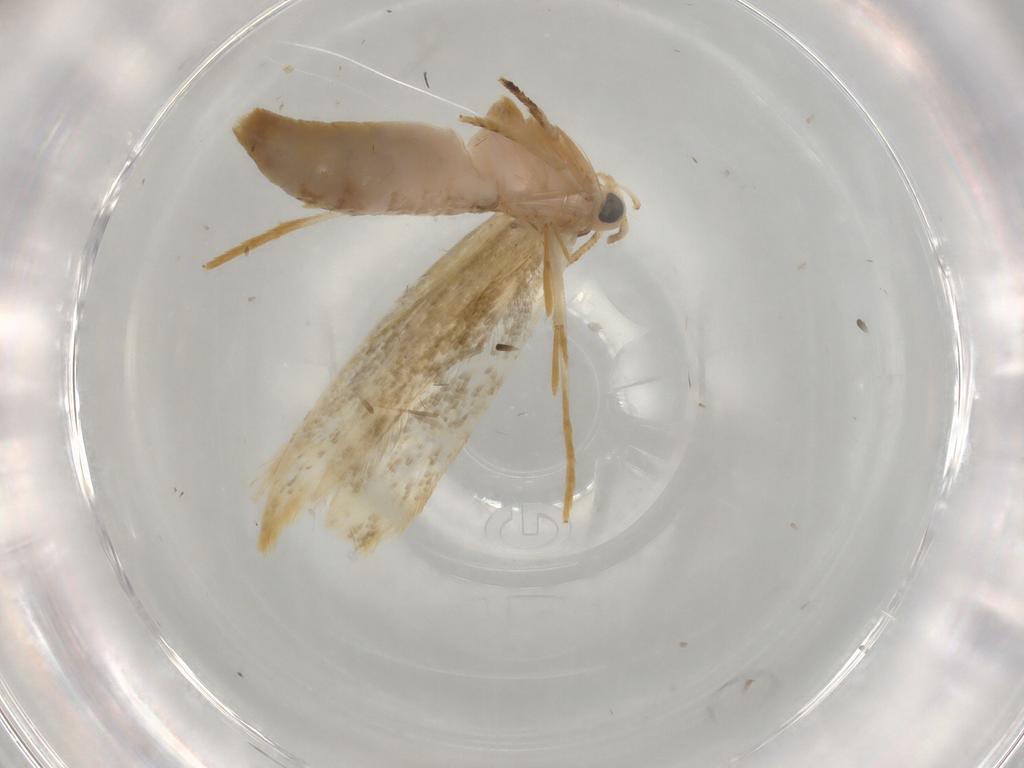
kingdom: Animalia
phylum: Arthropoda
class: Insecta
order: Lepidoptera
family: Tineidae
